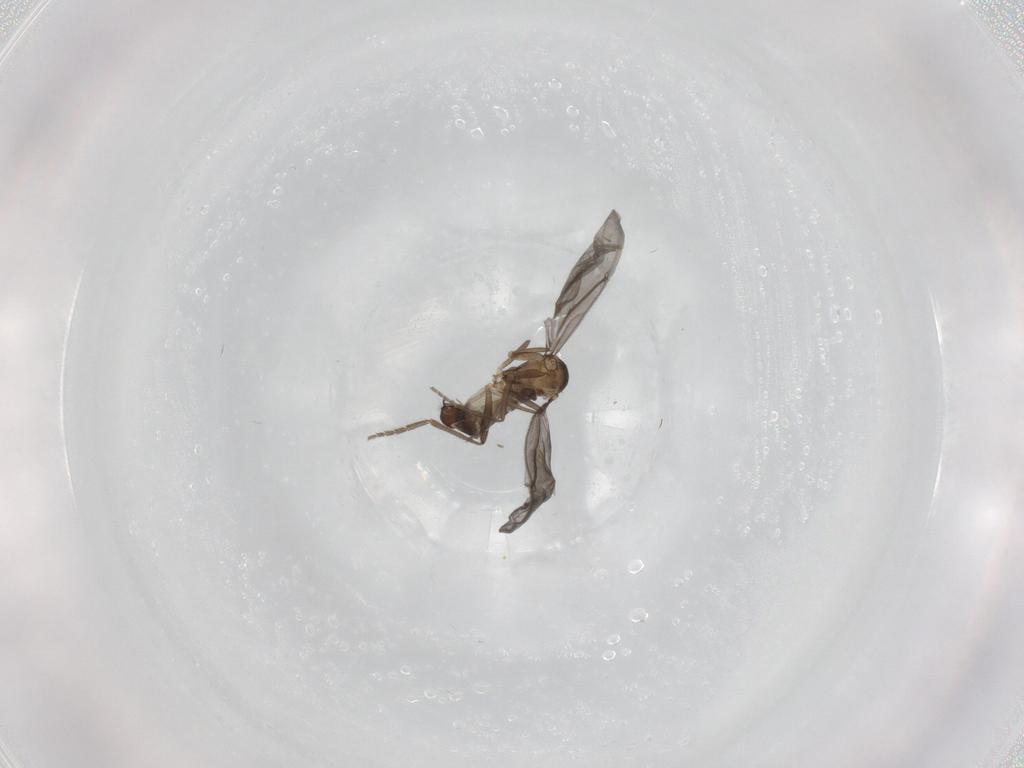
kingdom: Animalia
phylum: Arthropoda
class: Insecta
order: Diptera
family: Phoridae
